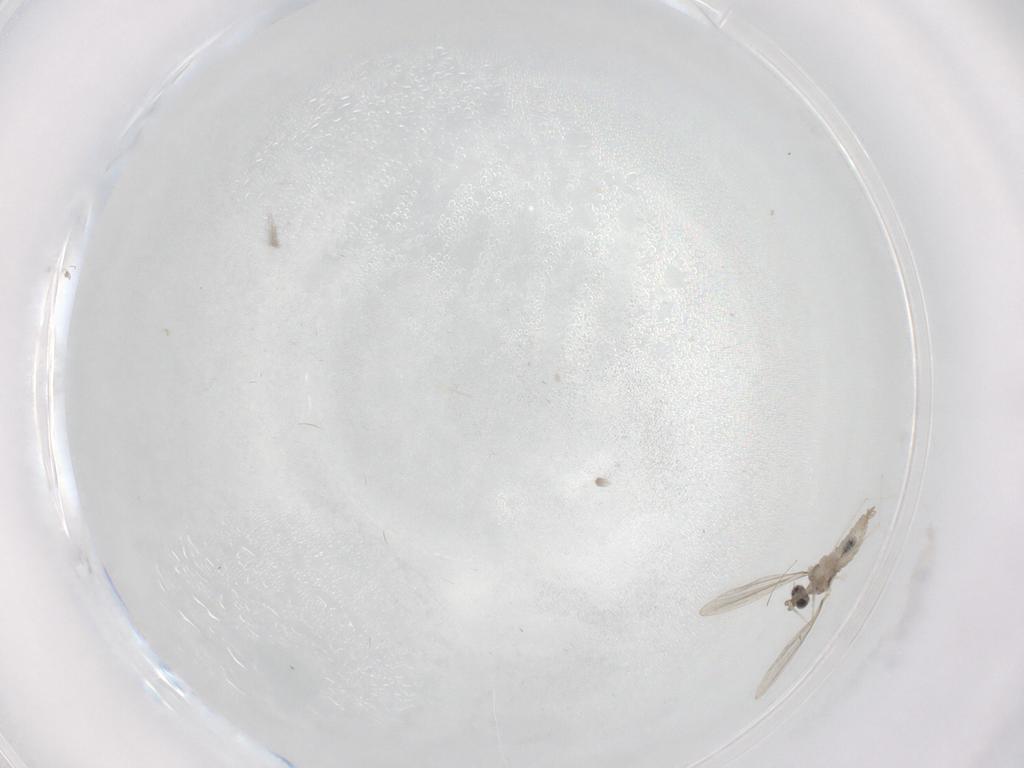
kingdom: Animalia
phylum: Arthropoda
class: Insecta
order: Diptera
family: Cecidomyiidae
